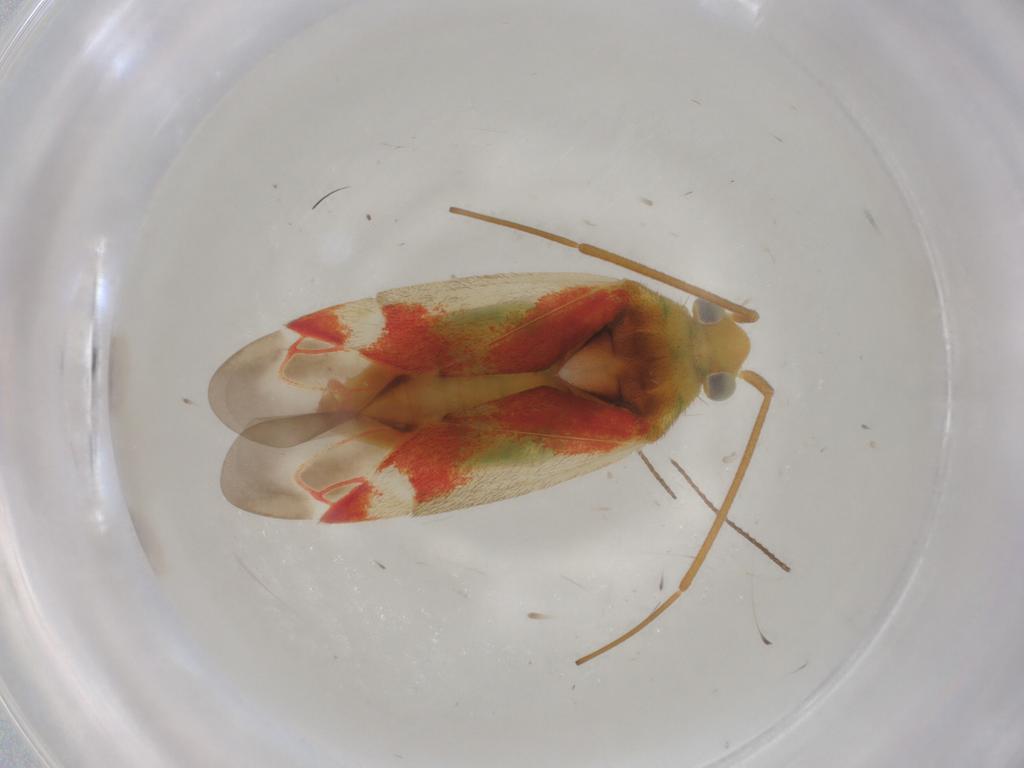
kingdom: Animalia
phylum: Arthropoda
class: Insecta
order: Hemiptera
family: Miridae
